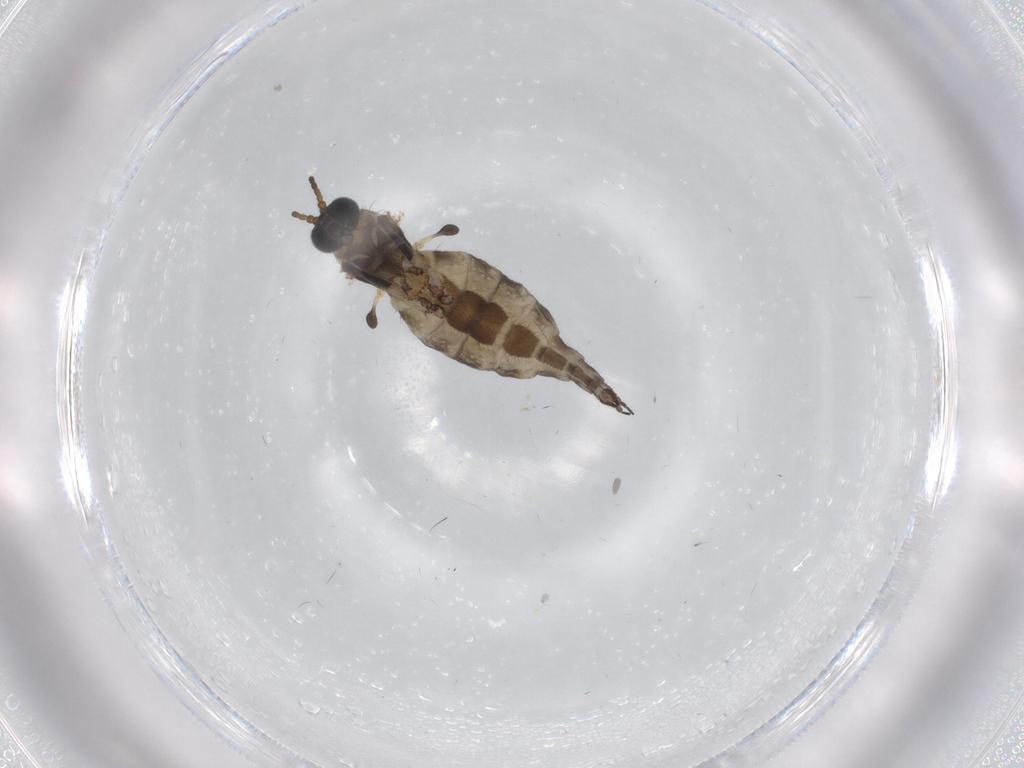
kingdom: Animalia
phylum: Arthropoda
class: Insecta
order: Diptera
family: Sciaridae
